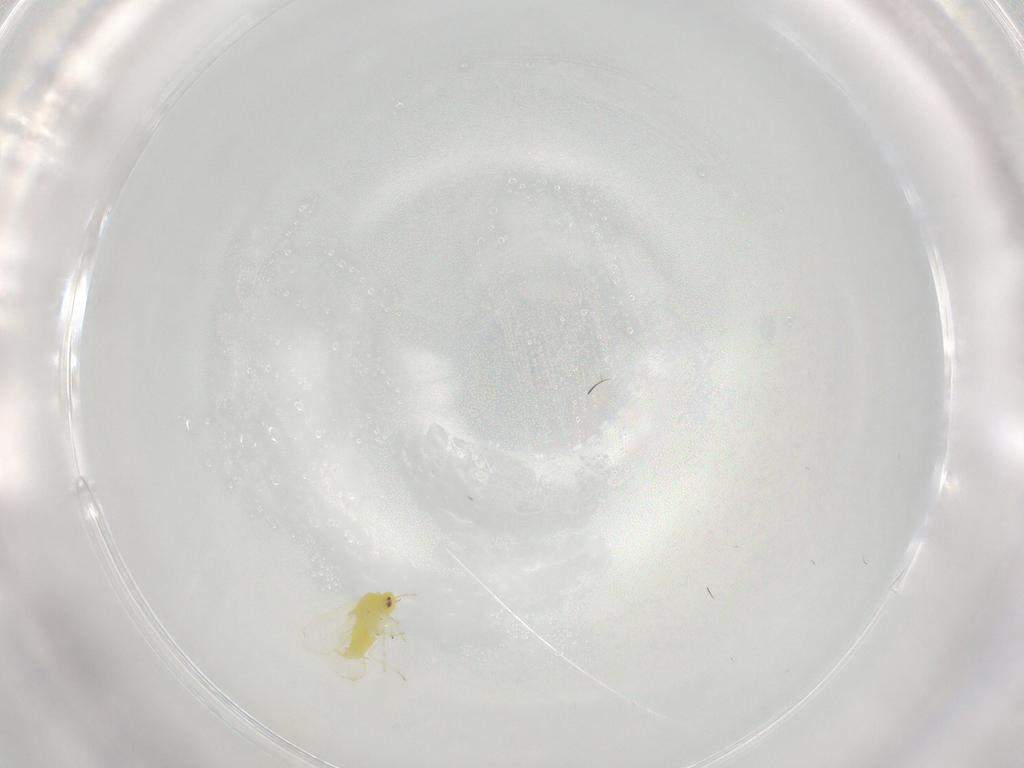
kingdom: Animalia
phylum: Arthropoda
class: Insecta
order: Hemiptera
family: Aleyrodidae
